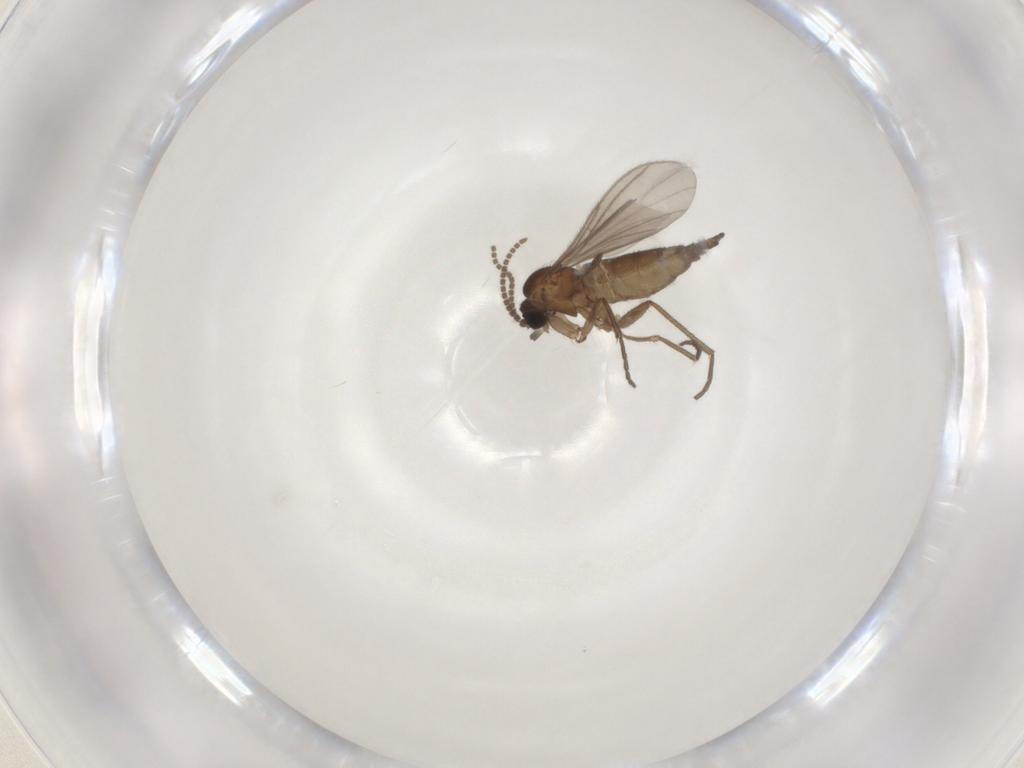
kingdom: Animalia
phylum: Arthropoda
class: Insecta
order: Diptera
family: Sciaridae
